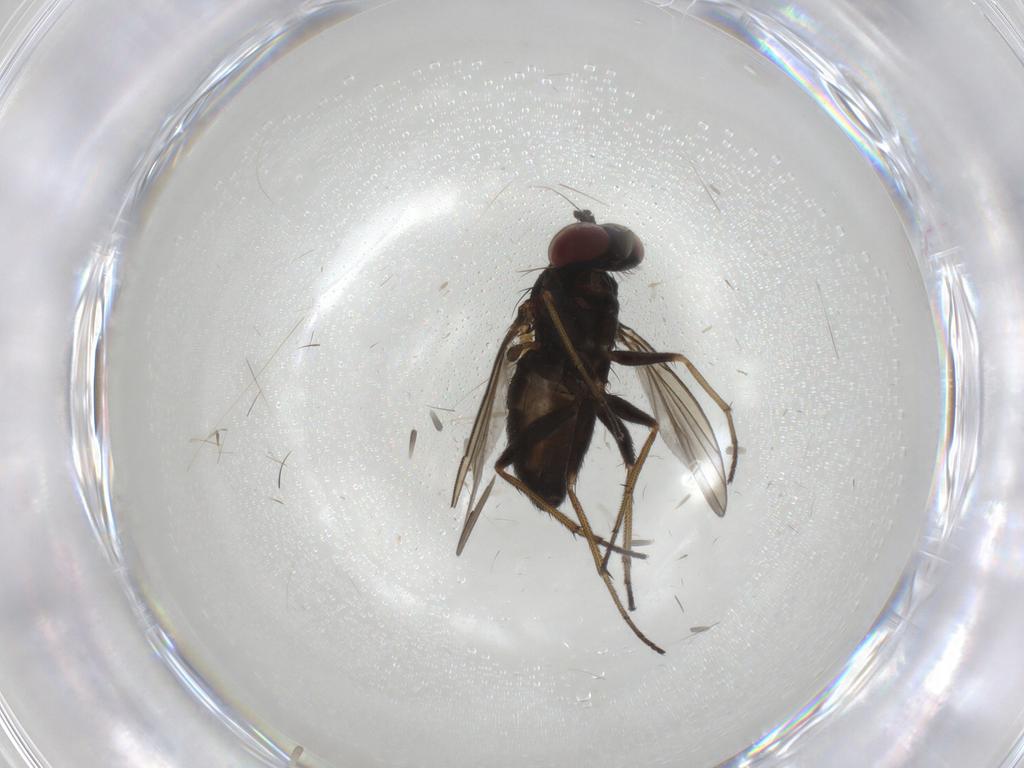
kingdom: Animalia
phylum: Arthropoda
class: Insecta
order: Diptera
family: Dolichopodidae
